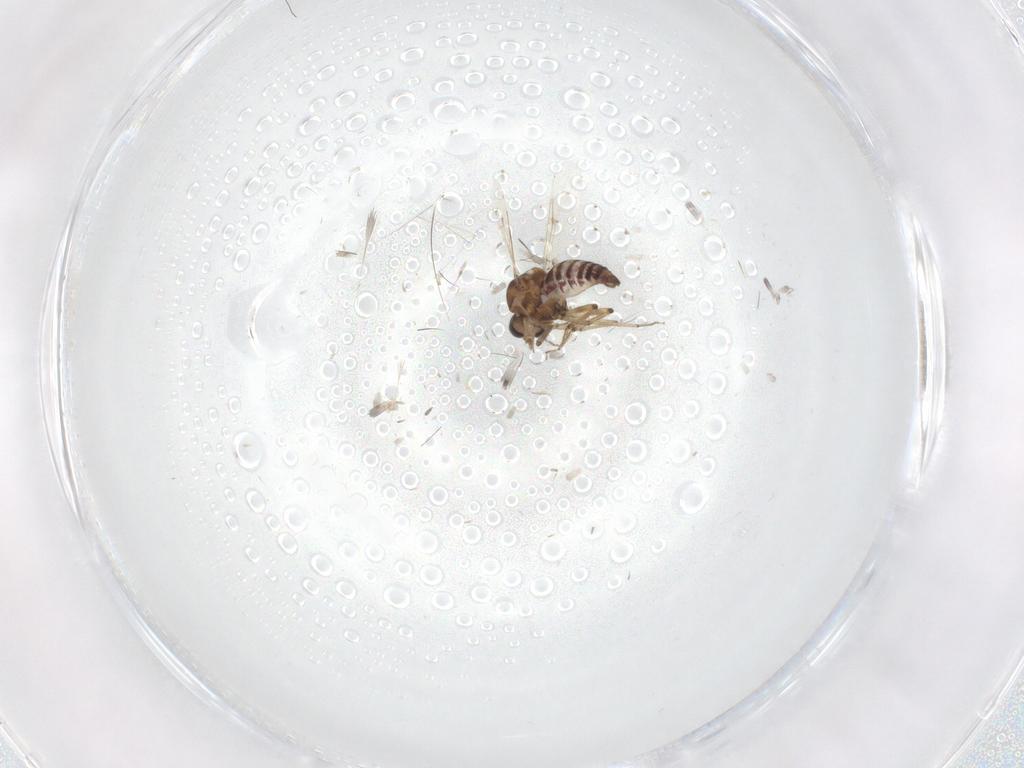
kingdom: Animalia
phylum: Arthropoda
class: Insecta
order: Diptera
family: Ceratopogonidae
